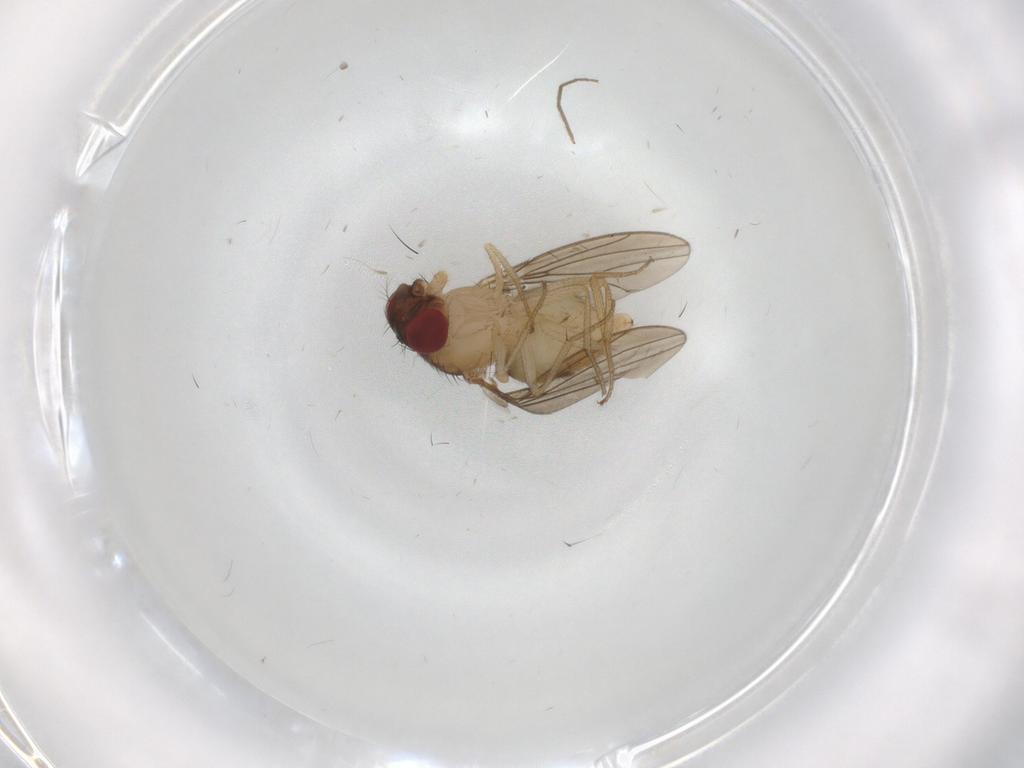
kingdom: Animalia
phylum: Arthropoda
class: Insecta
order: Diptera
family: Drosophilidae
